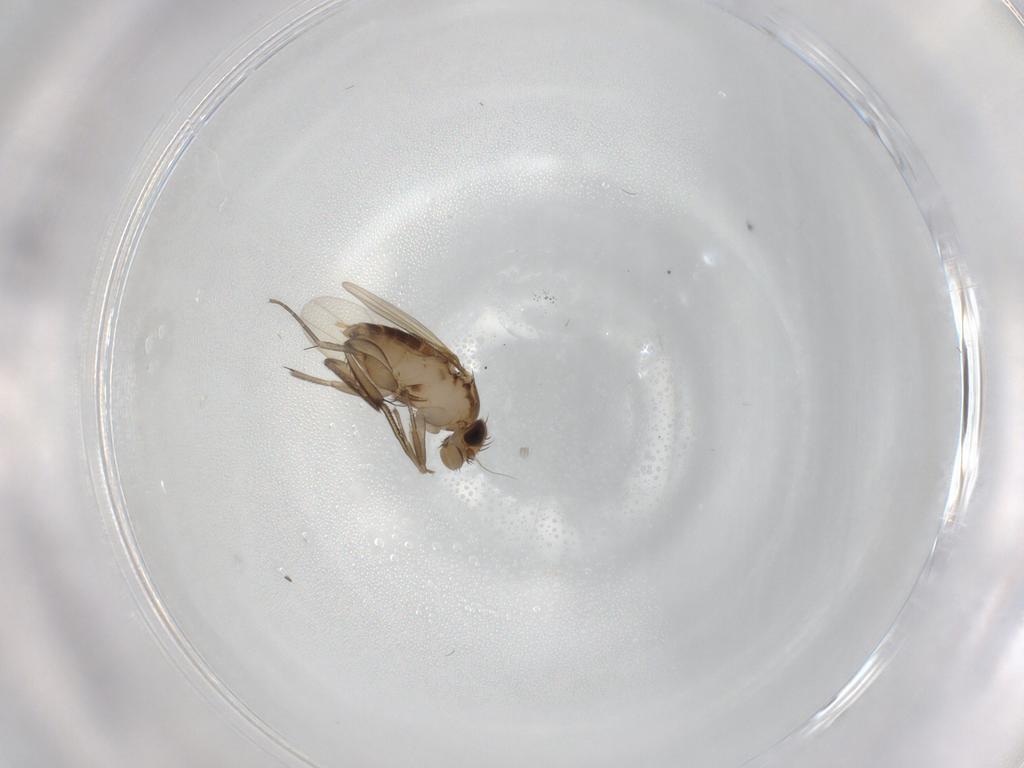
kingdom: Animalia
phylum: Arthropoda
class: Insecta
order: Diptera
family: Phoridae
